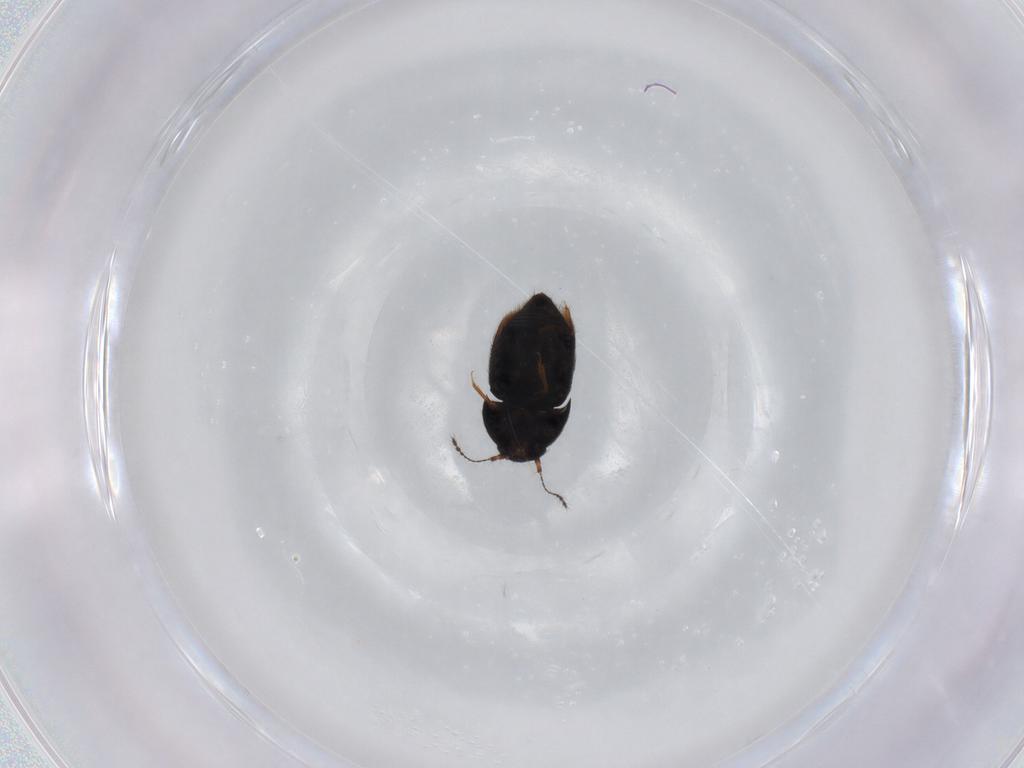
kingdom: Animalia
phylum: Arthropoda
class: Insecta
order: Coleoptera
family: Ptiliidae
